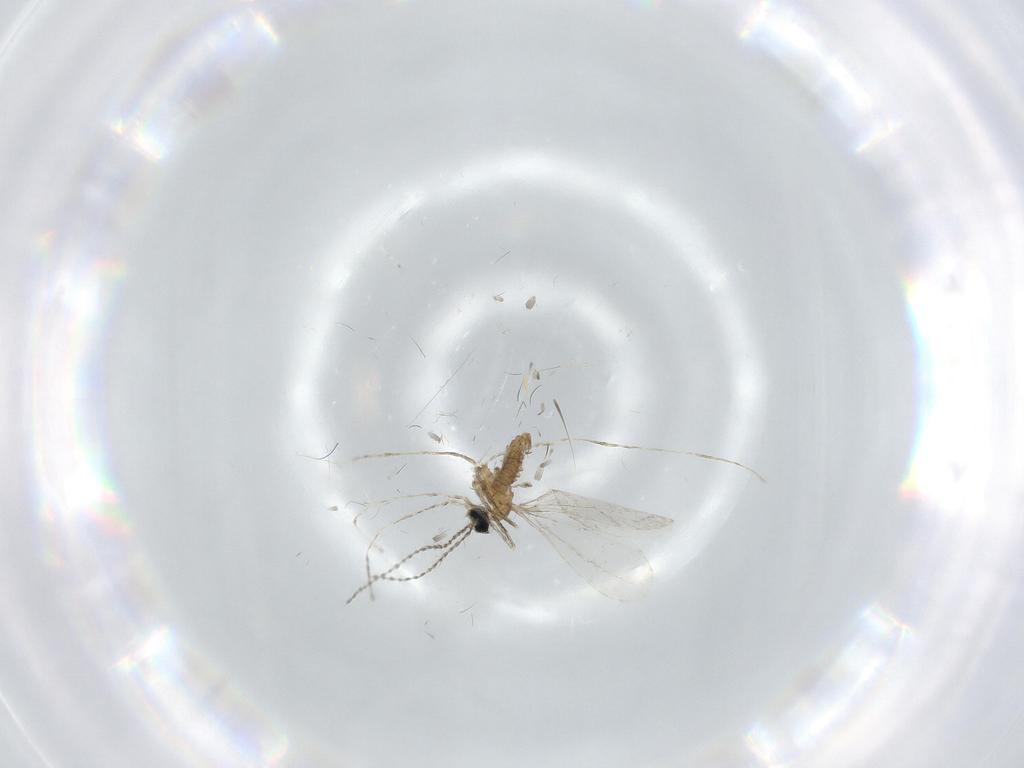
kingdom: Animalia
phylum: Arthropoda
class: Insecta
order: Diptera
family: Cecidomyiidae
